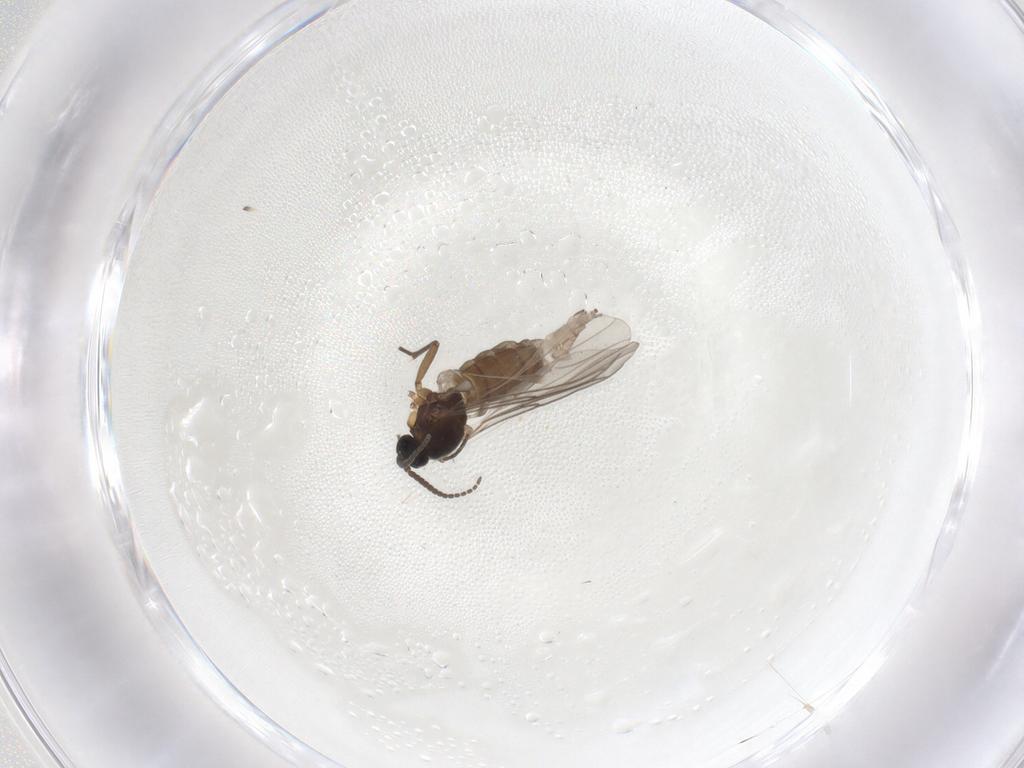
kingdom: Animalia
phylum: Arthropoda
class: Insecta
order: Diptera
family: Sciaridae
